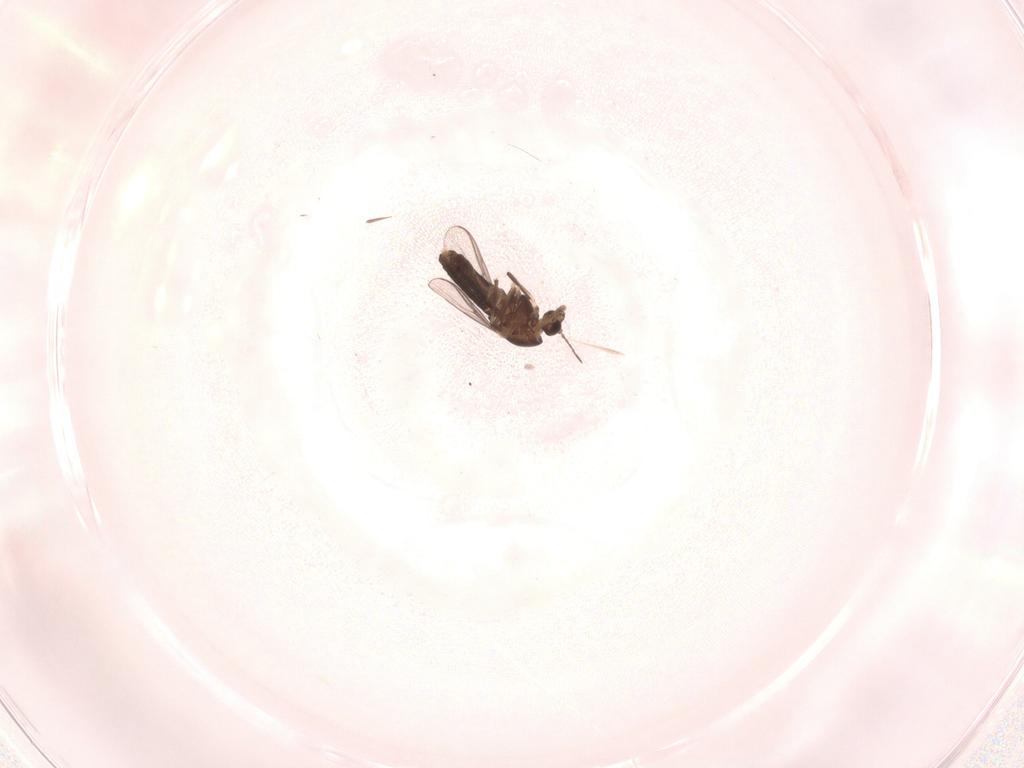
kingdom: Animalia
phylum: Arthropoda
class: Insecta
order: Diptera
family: Chironomidae
